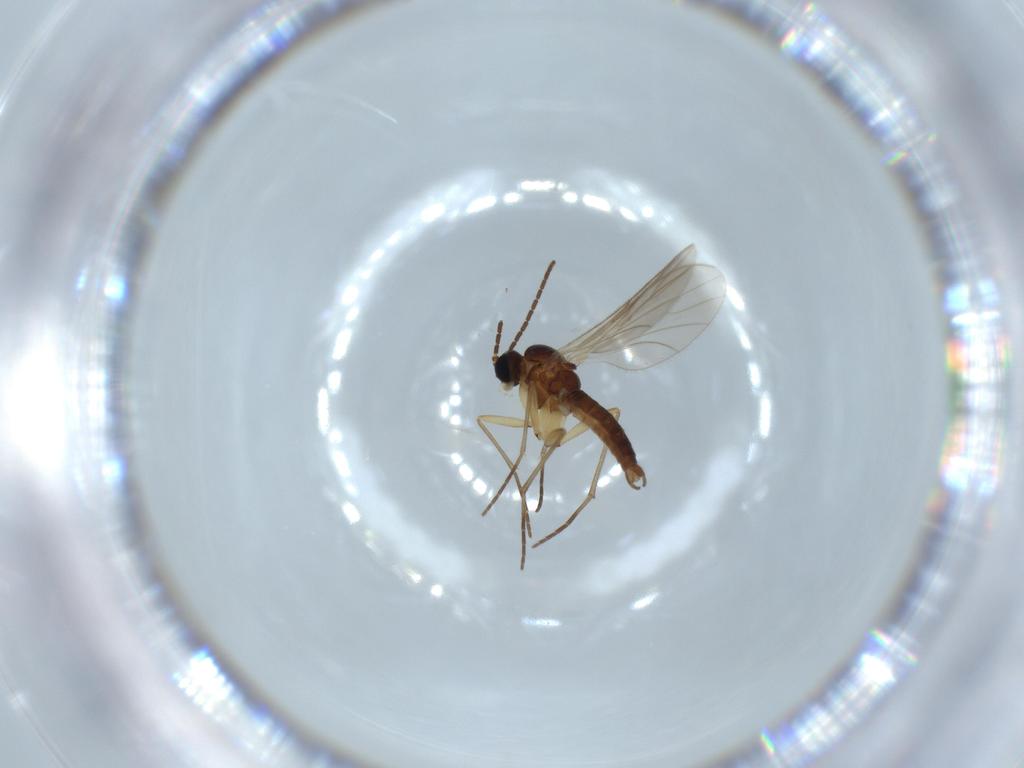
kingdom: Animalia
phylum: Arthropoda
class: Insecta
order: Diptera
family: Sciaridae
